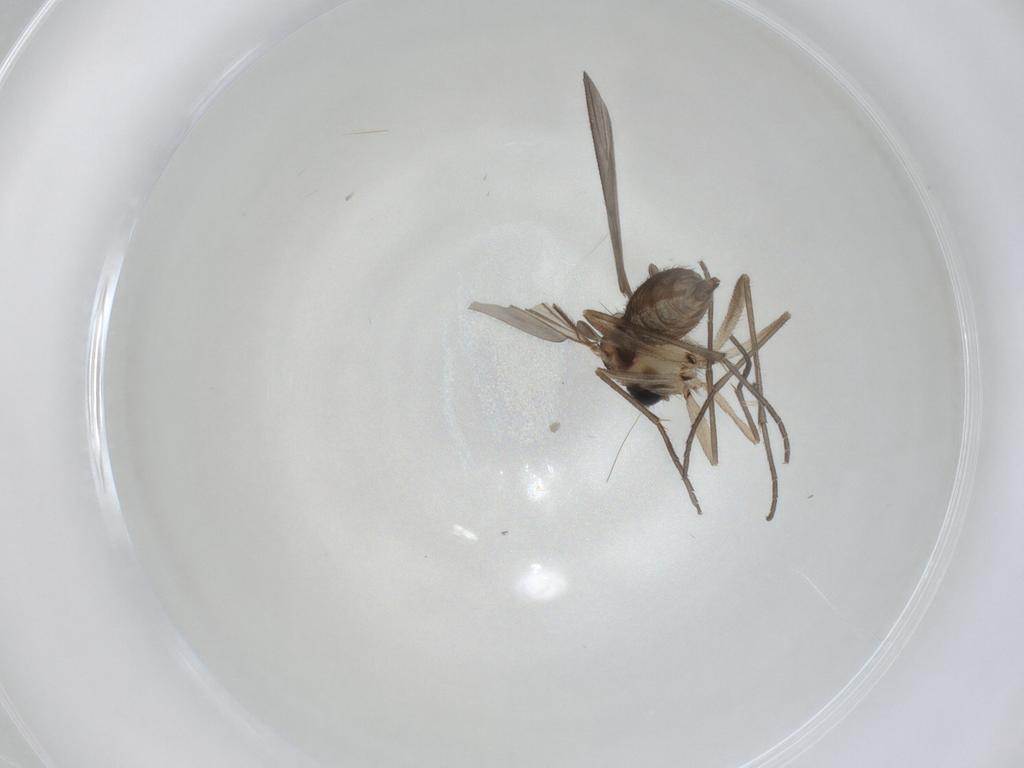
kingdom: Animalia
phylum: Arthropoda
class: Insecta
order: Diptera
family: Sciaridae
